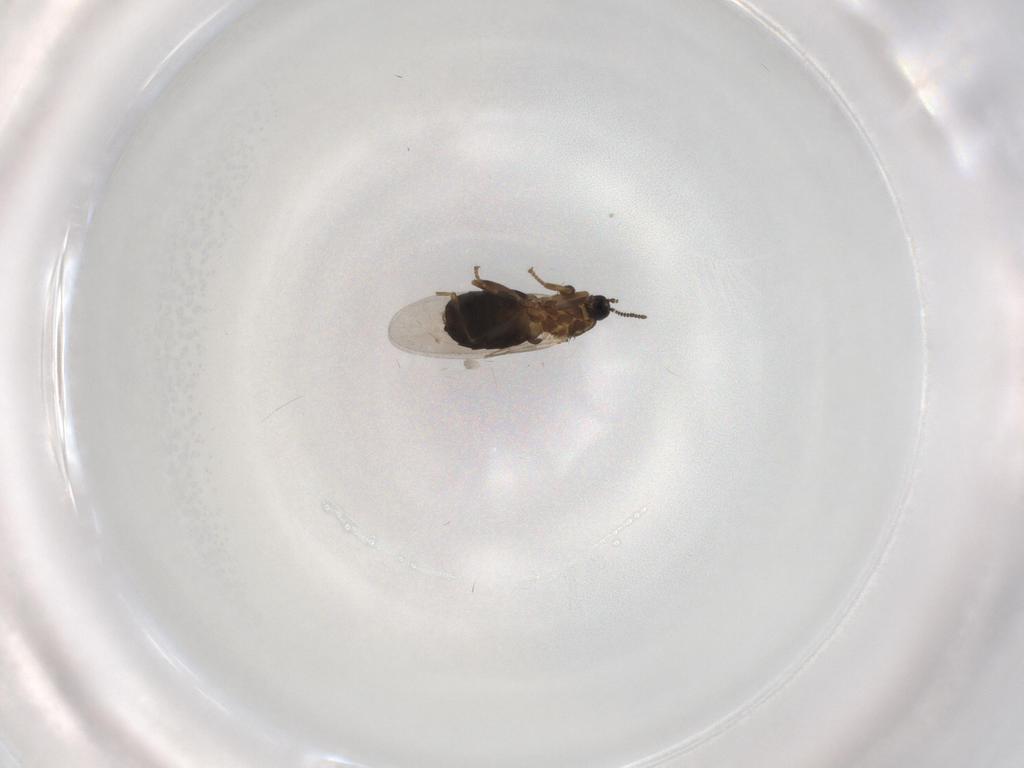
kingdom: Animalia
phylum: Arthropoda
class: Insecta
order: Diptera
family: Scatopsidae
